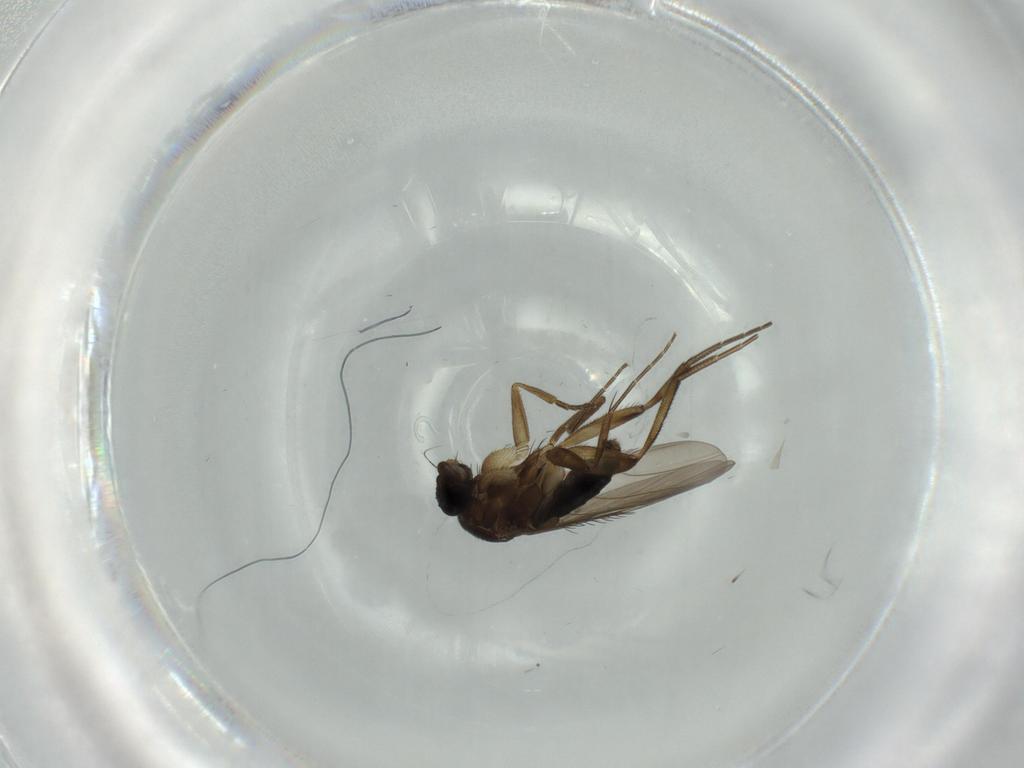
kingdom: Animalia
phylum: Arthropoda
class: Insecta
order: Diptera
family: Phoridae
